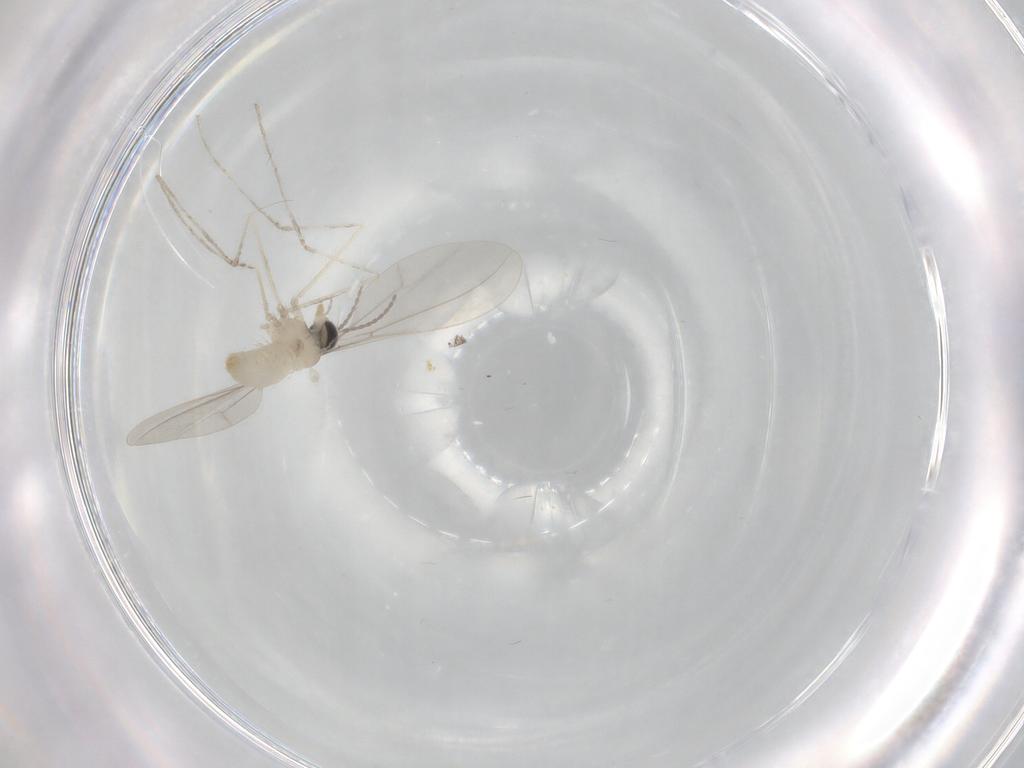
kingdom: Animalia
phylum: Arthropoda
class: Insecta
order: Diptera
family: Cecidomyiidae
